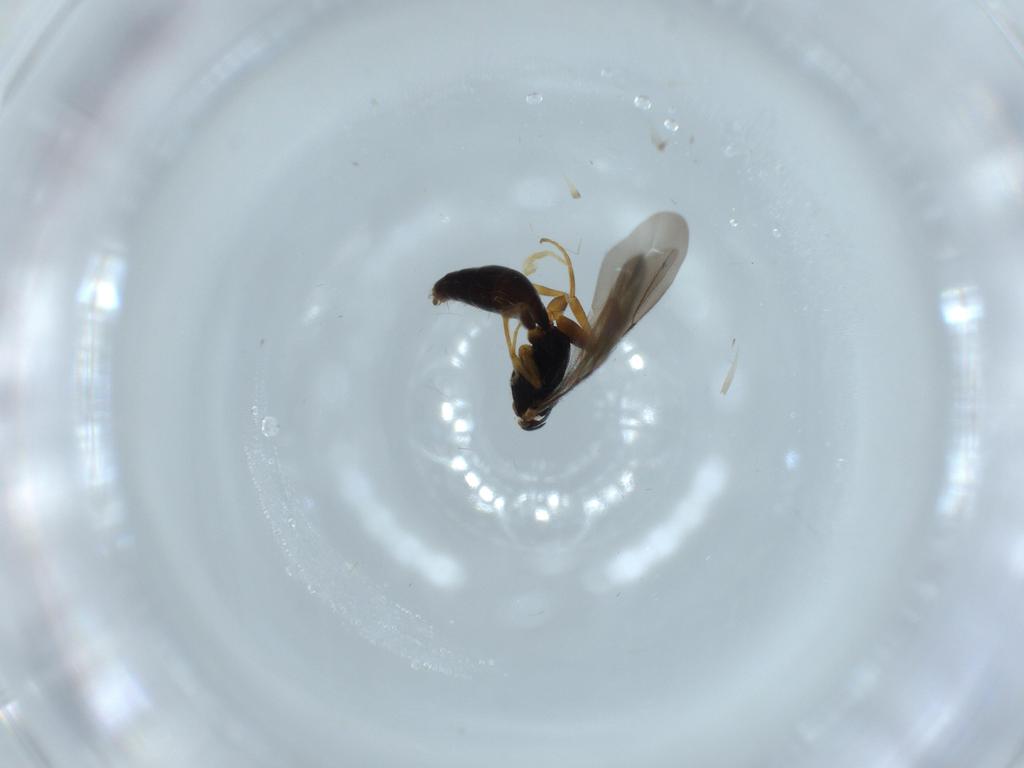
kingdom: Animalia
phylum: Arthropoda
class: Insecta
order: Hymenoptera
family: Bethylidae
